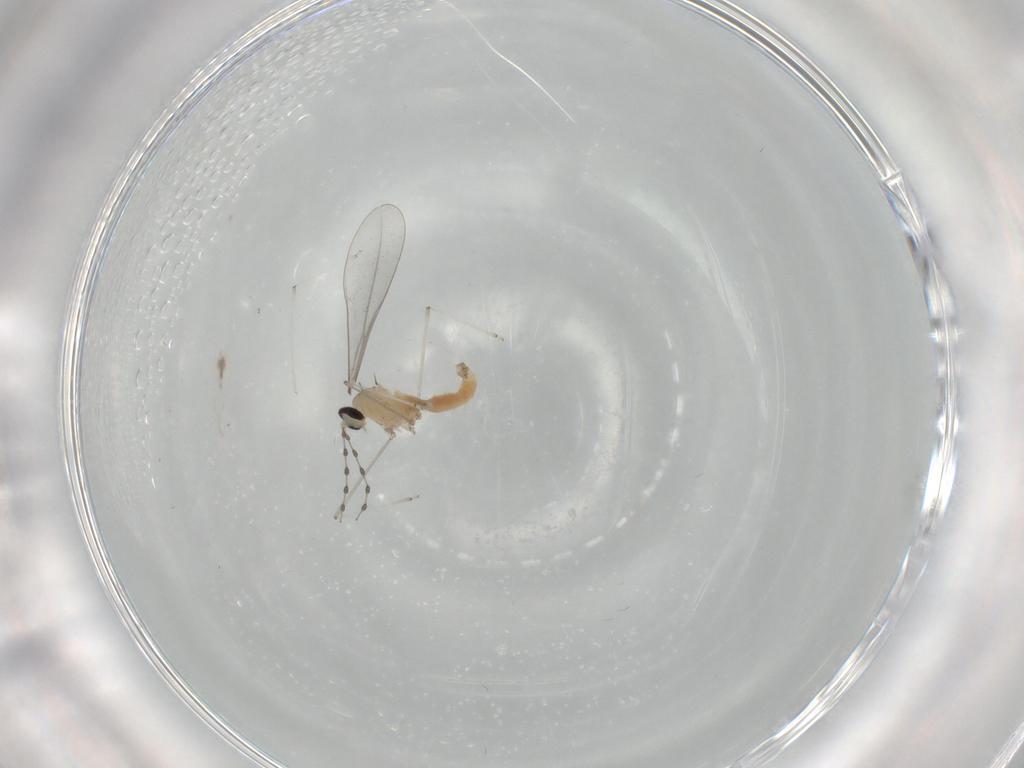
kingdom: Animalia
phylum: Arthropoda
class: Insecta
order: Diptera
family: Cecidomyiidae
